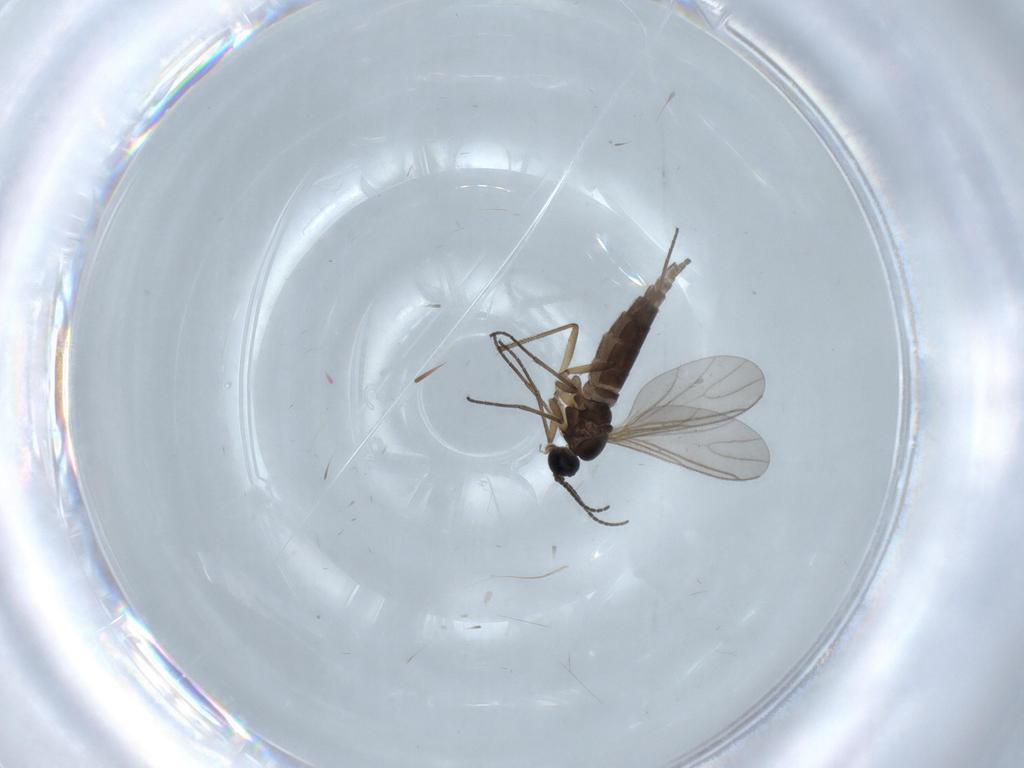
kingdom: Animalia
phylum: Arthropoda
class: Insecta
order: Diptera
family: Sciaridae
